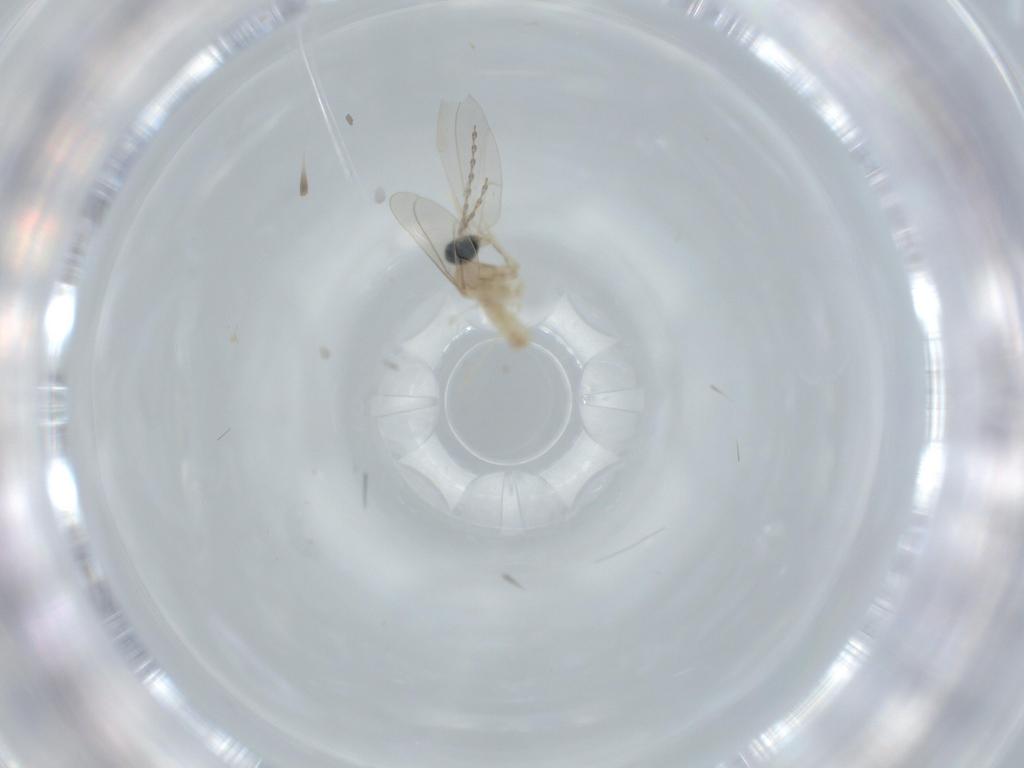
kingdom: Animalia
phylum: Arthropoda
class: Insecta
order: Diptera
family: Cecidomyiidae
